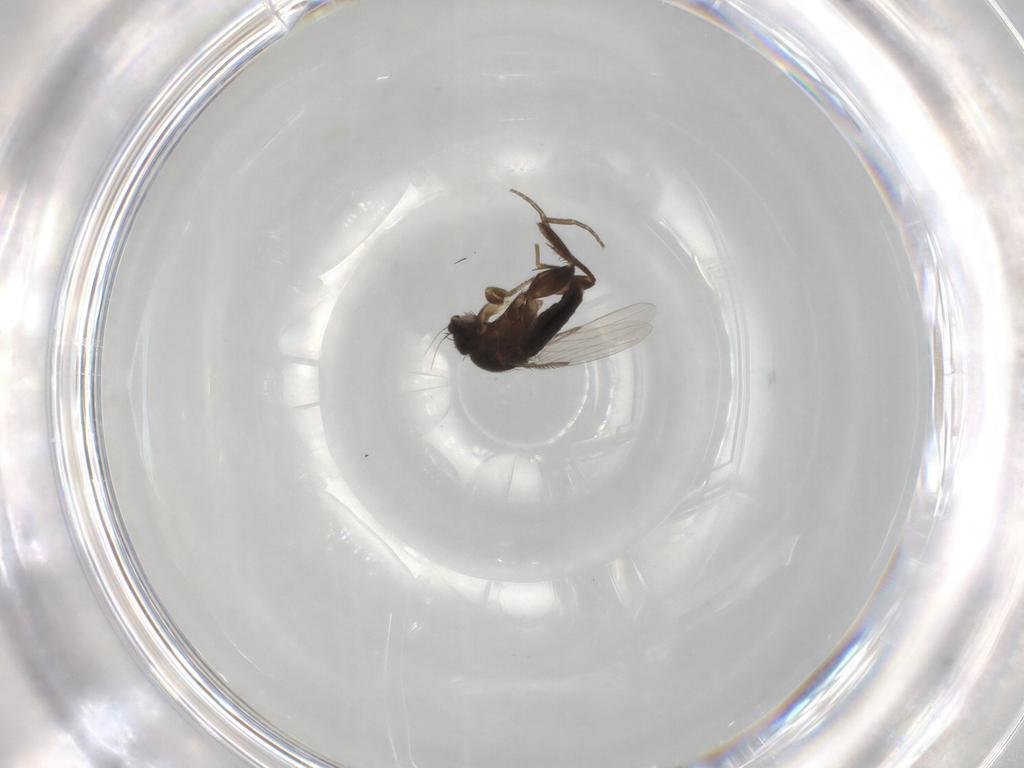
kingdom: Animalia
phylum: Arthropoda
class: Insecta
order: Diptera
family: Phoridae
